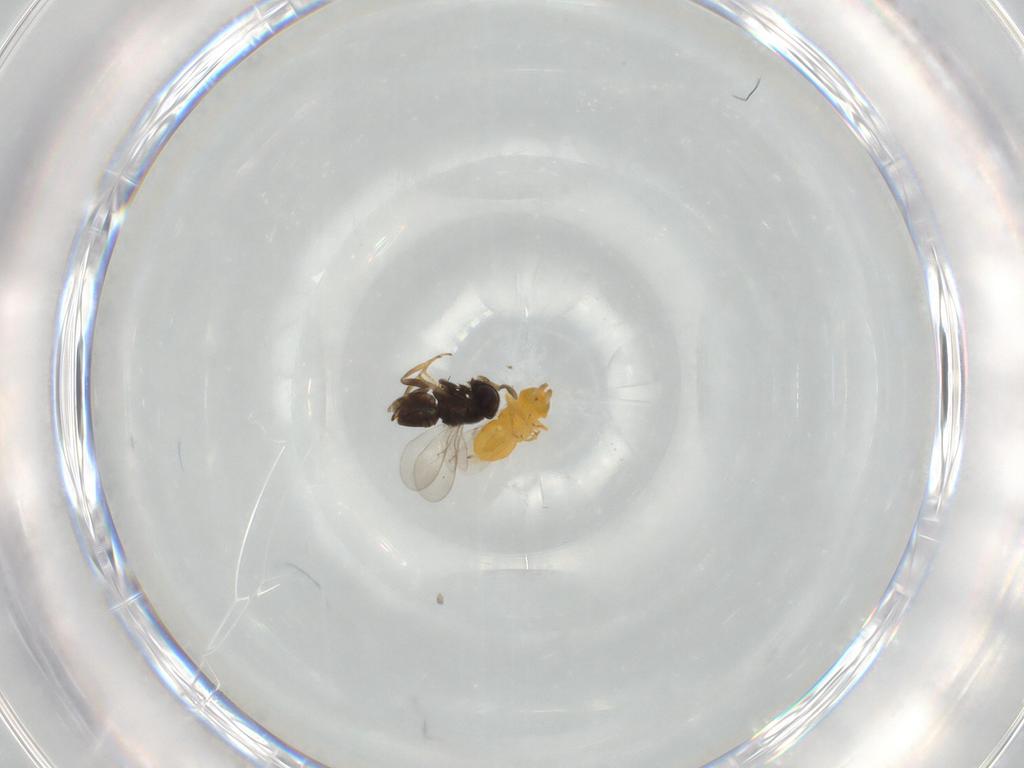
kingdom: Animalia
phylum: Arthropoda
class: Insecta
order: Hymenoptera
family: Encyrtidae
